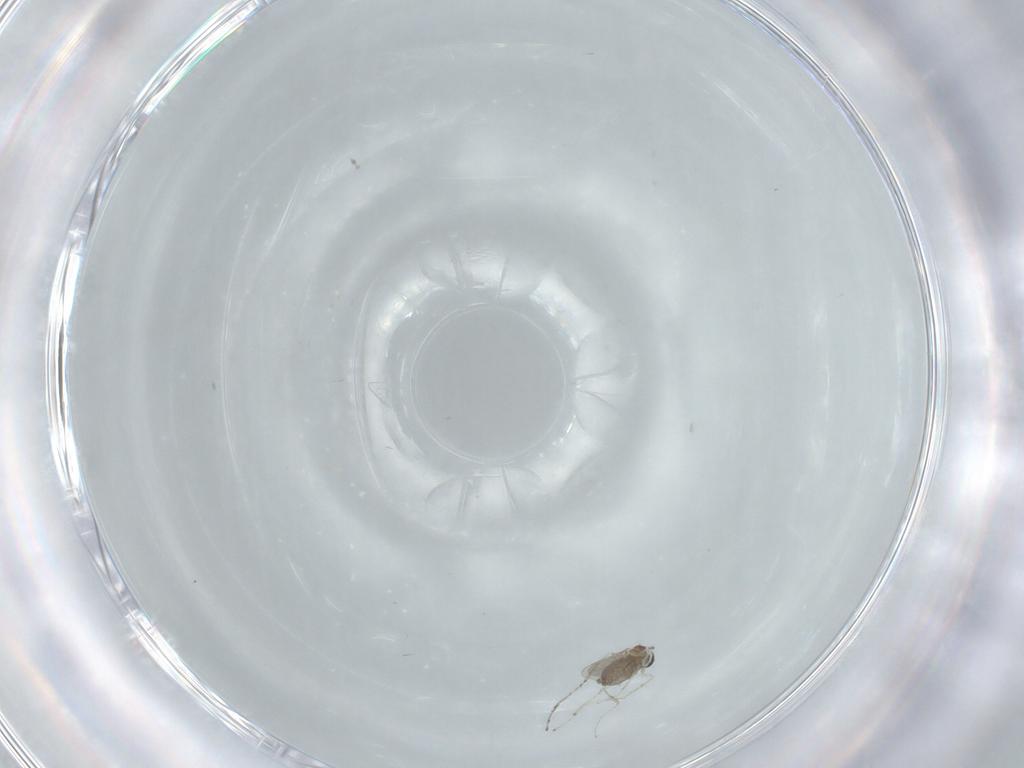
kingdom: Animalia
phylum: Arthropoda
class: Insecta
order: Diptera
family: Cecidomyiidae
